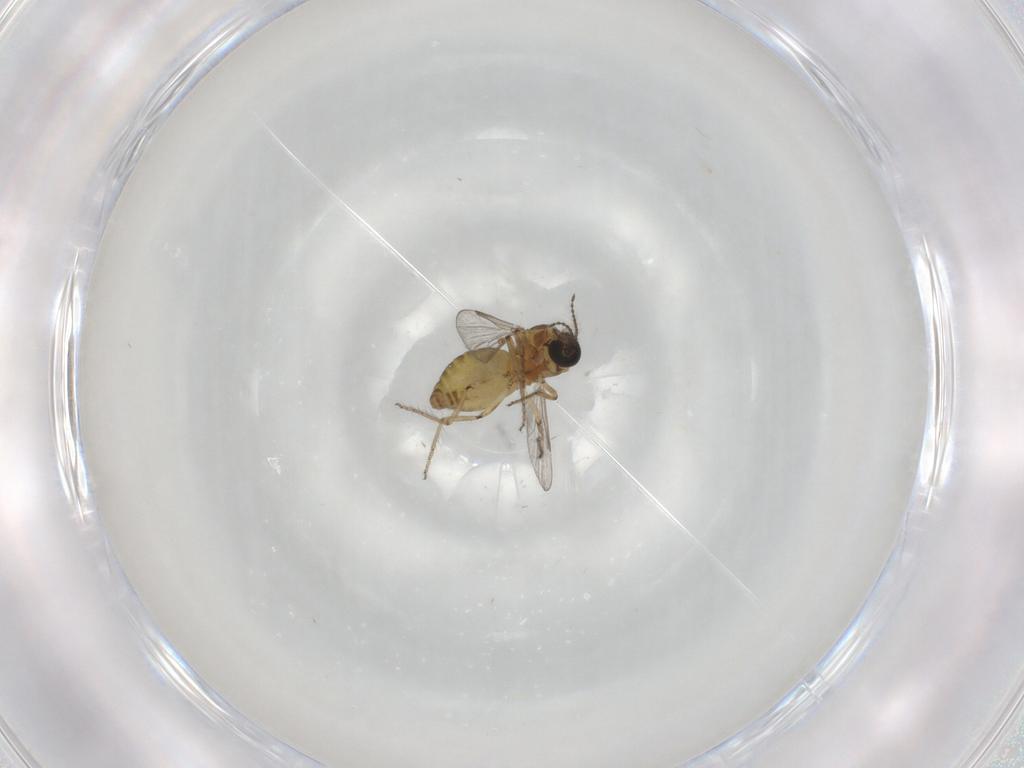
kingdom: Animalia
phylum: Arthropoda
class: Insecta
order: Diptera
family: Ceratopogonidae
